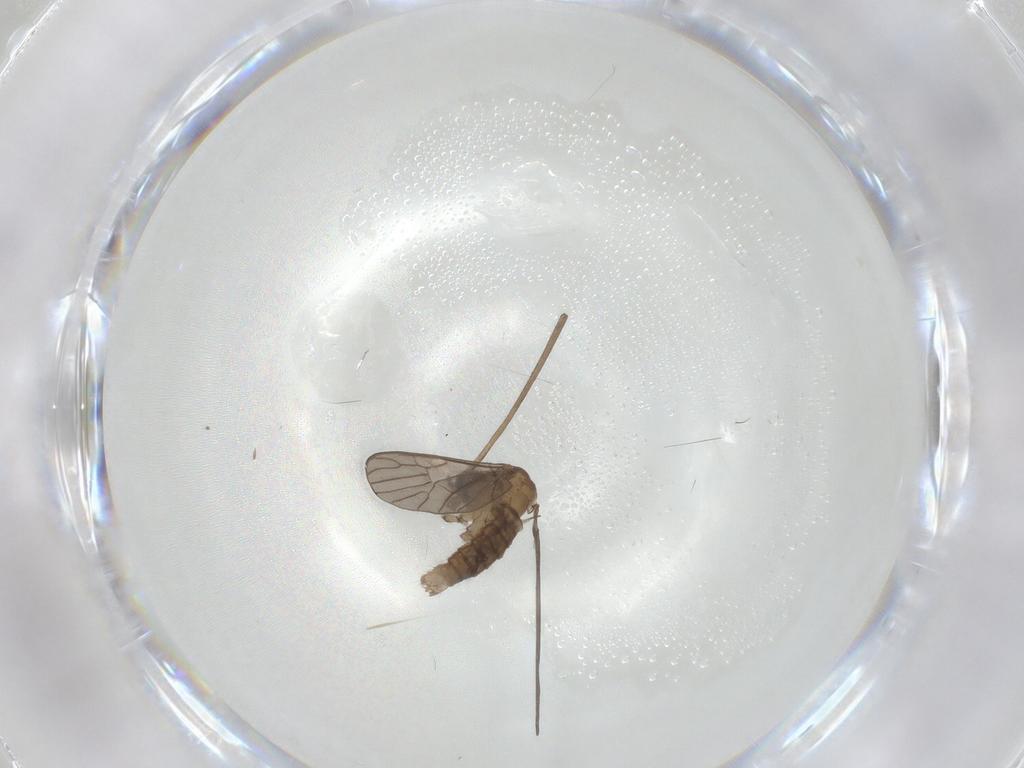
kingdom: Animalia
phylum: Arthropoda
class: Insecta
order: Diptera
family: Limoniidae
